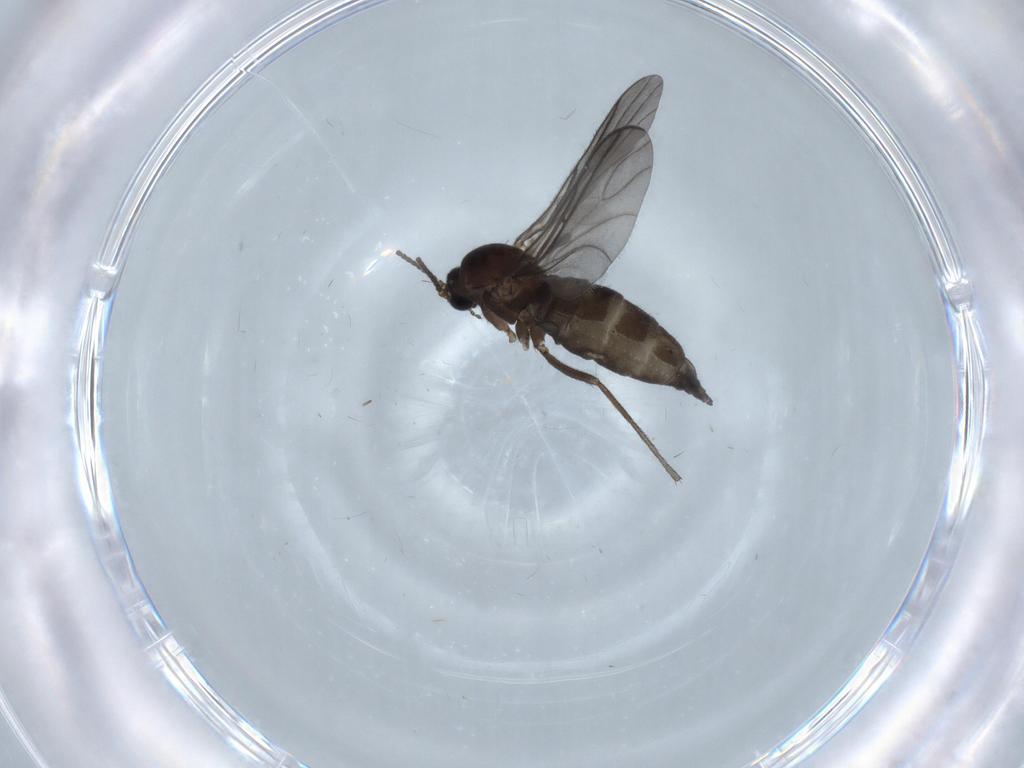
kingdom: Animalia
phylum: Arthropoda
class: Insecta
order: Diptera
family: Sciaridae
